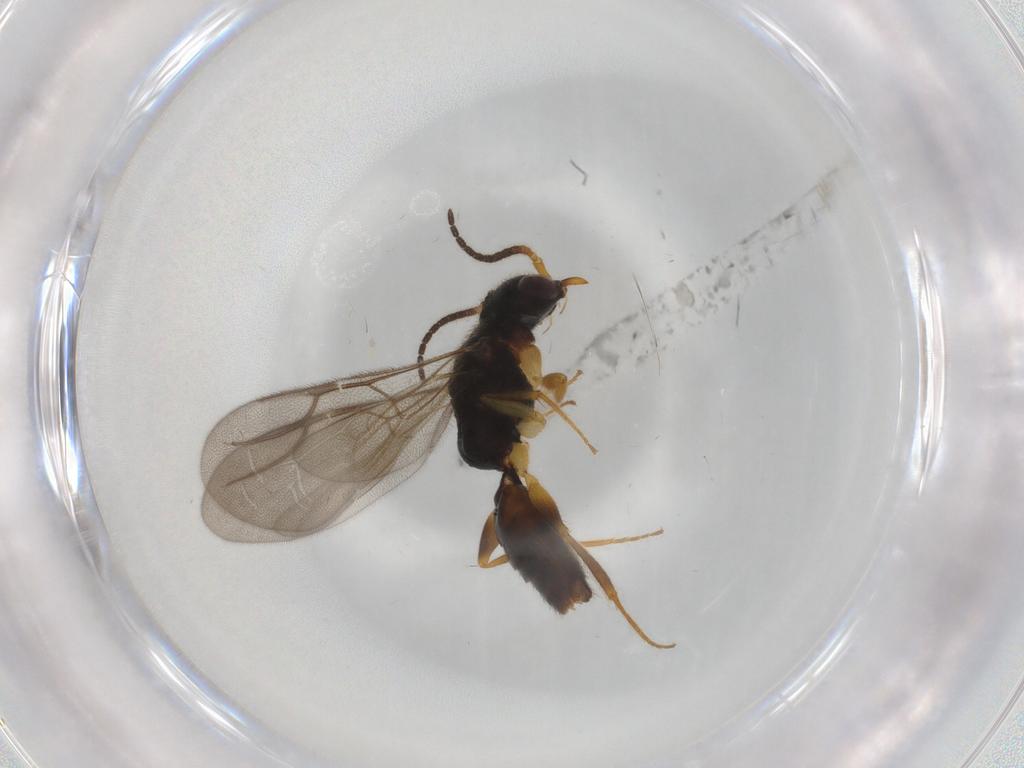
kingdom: Animalia
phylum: Arthropoda
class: Insecta
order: Hymenoptera
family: Bethylidae
